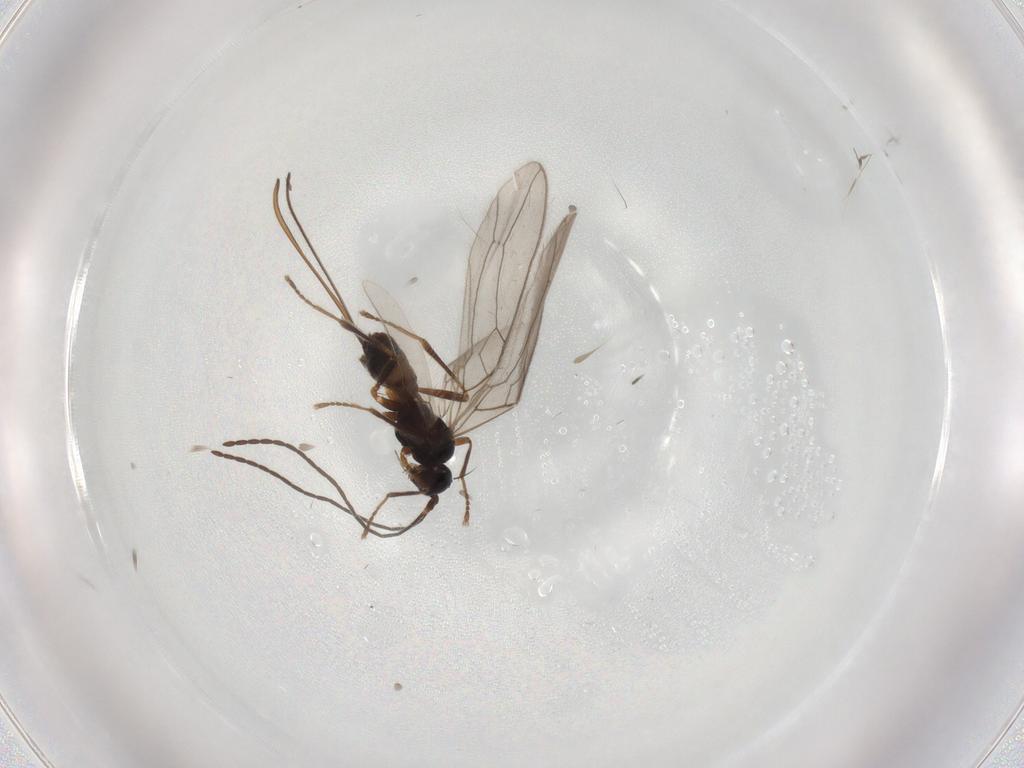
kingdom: Animalia
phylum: Arthropoda
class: Insecta
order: Hymenoptera
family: Braconidae
